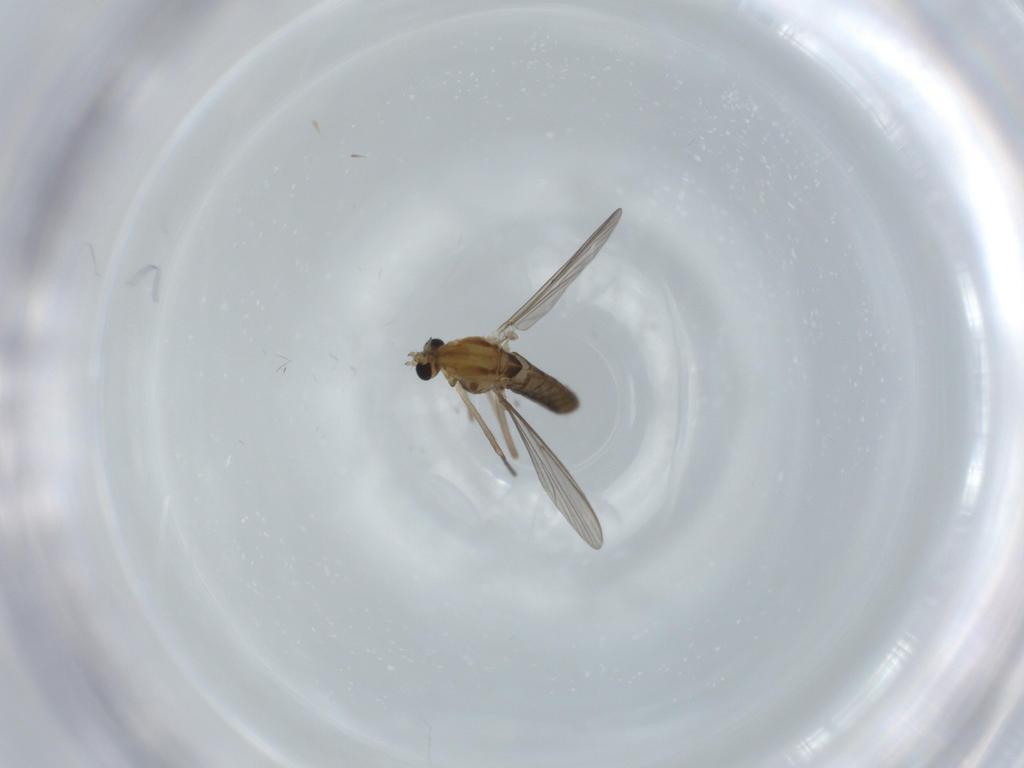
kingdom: Animalia
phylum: Arthropoda
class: Insecta
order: Diptera
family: Chironomidae
